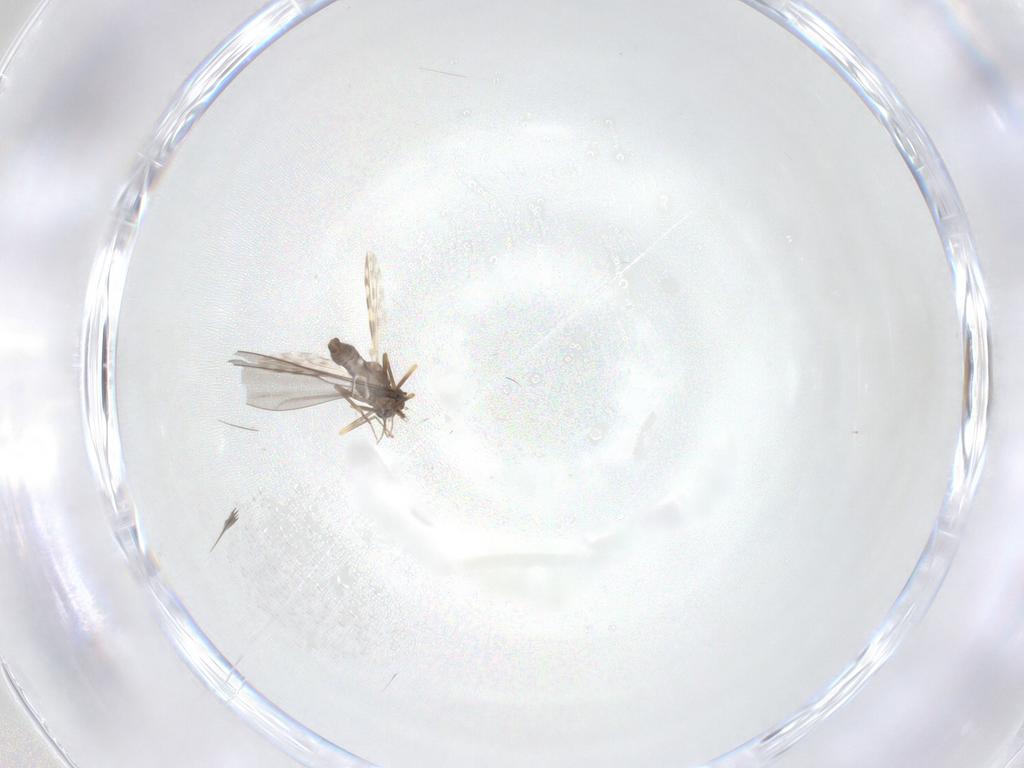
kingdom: Animalia
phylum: Arthropoda
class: Insecta
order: Diptera
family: Ceratopogonidae
